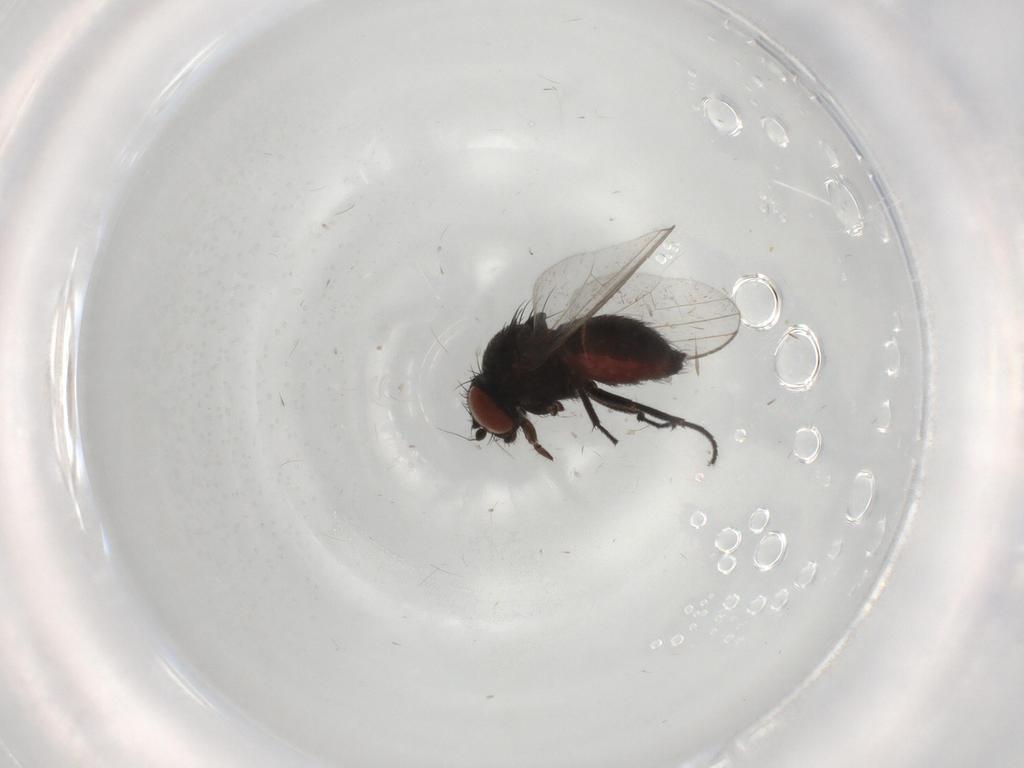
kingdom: Animalia
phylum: Arthropoda
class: Insecta
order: Diptera
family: Milichiidae
